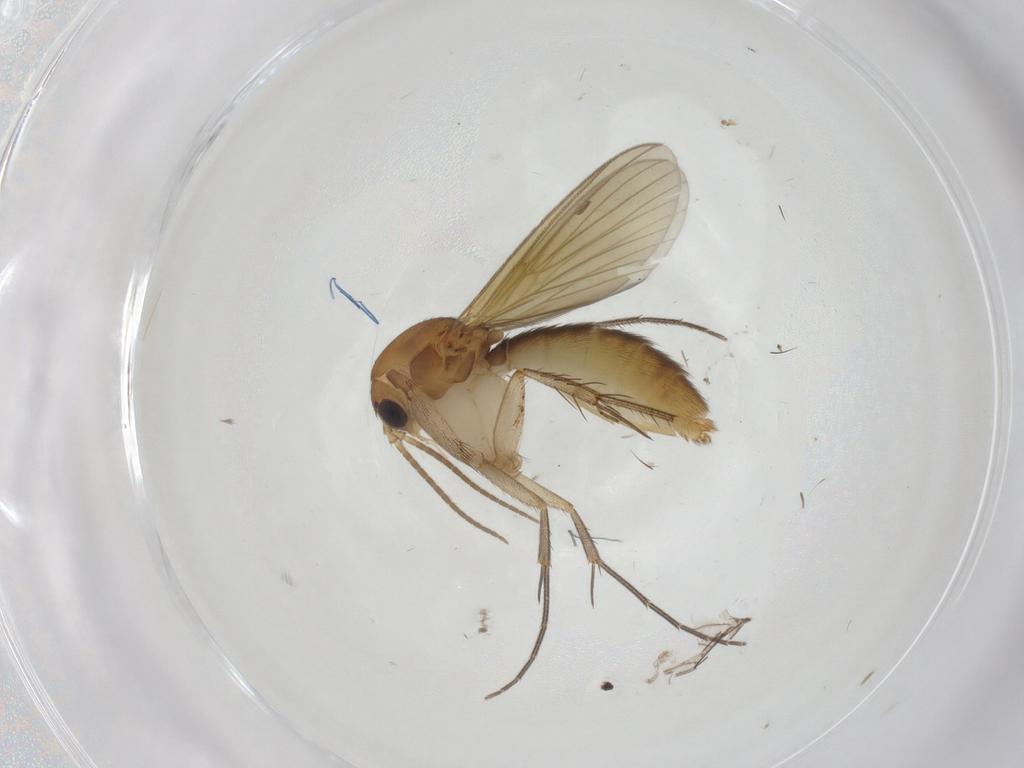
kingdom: Animalia
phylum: Arthropoda
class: Insecta
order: Diptera
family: Mycetophilidae
